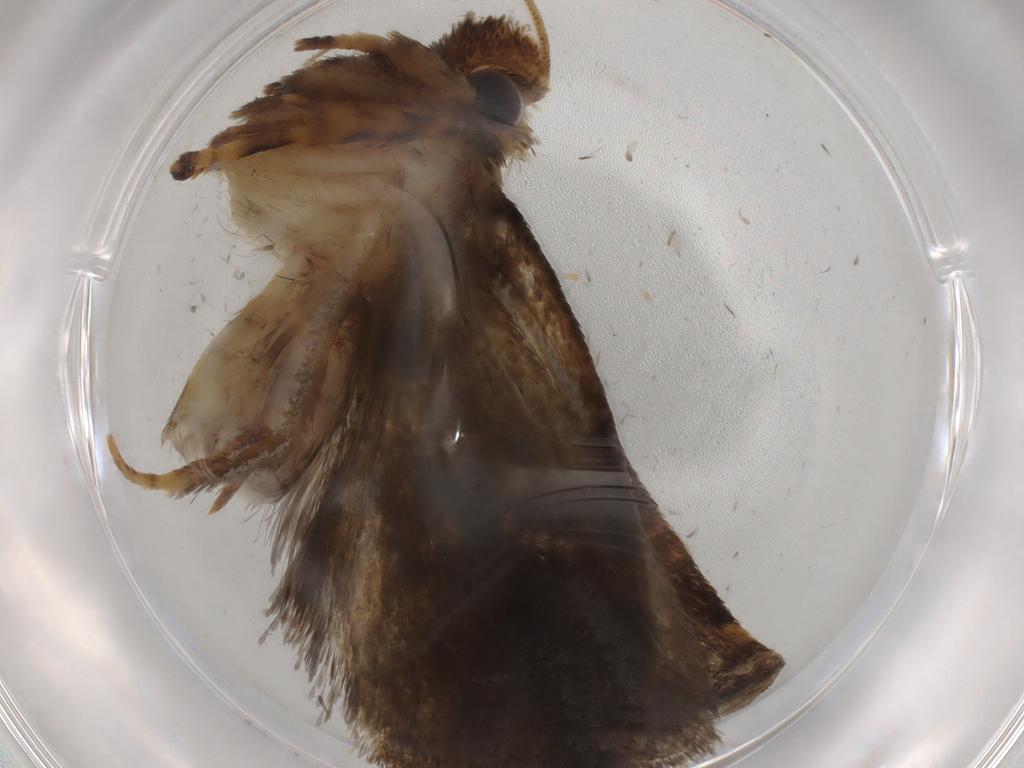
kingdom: Animalia
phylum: Arthropoda
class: Insecta
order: Lepidoptera
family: Tineidae
